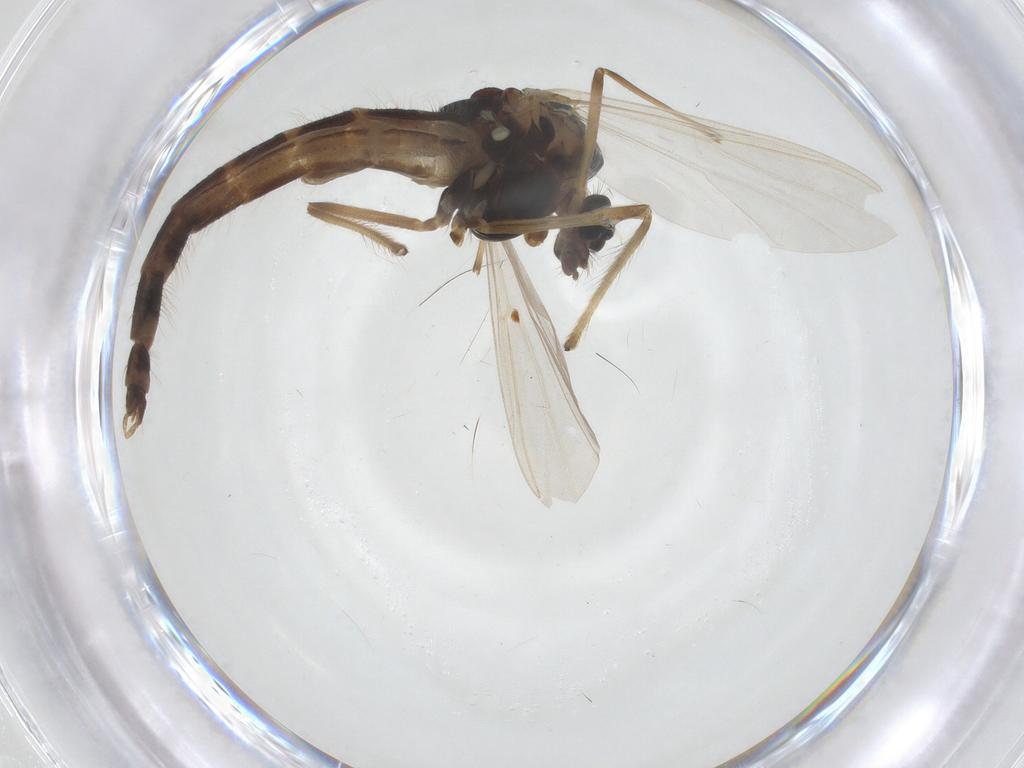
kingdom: Animalia
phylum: Arthropoda
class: Insecta
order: Diptera
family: Chironomidae
